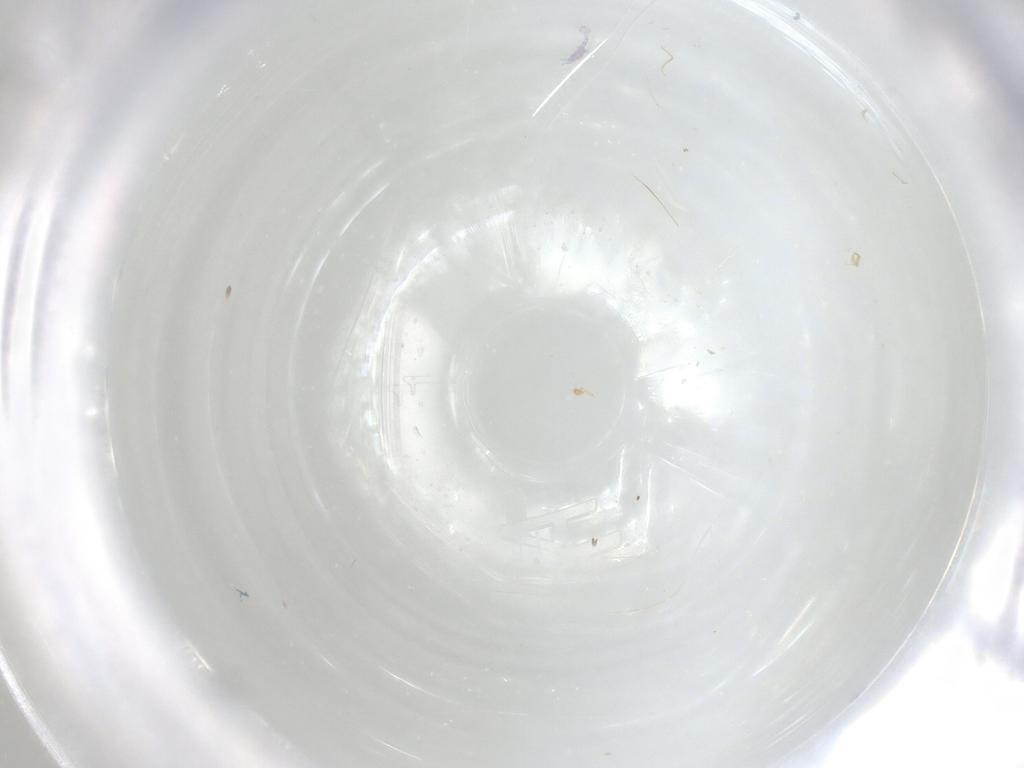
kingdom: Animalia
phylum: Arthropoda
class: Insecta
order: Diptera
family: Sciaridae
